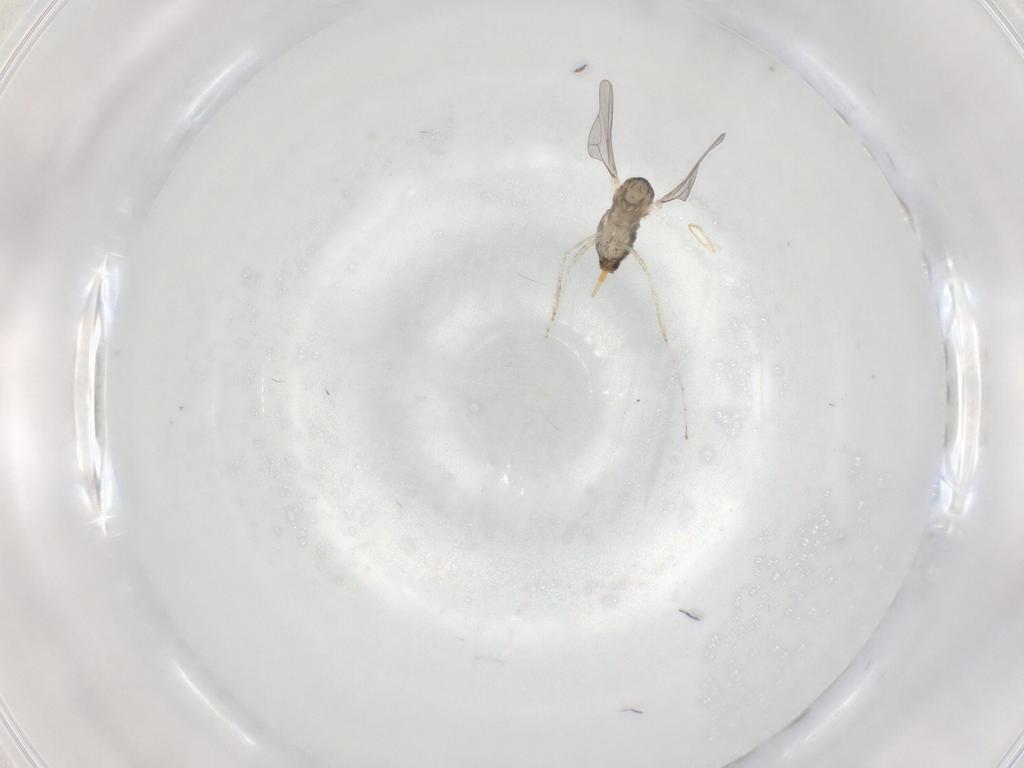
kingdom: Animalia
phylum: Arthropoda
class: Insecta
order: Diptera
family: Cecidomyiidae
